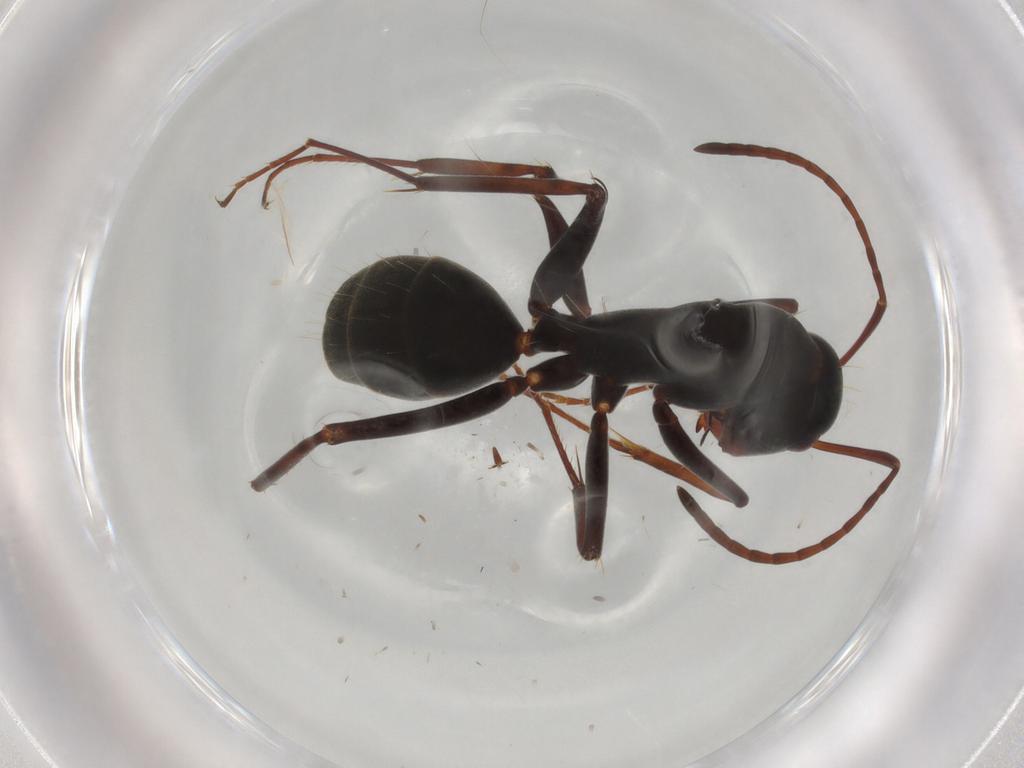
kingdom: Animalia
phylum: Arthropoda
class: Insecta
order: Hymenoptera
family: Formicidae
